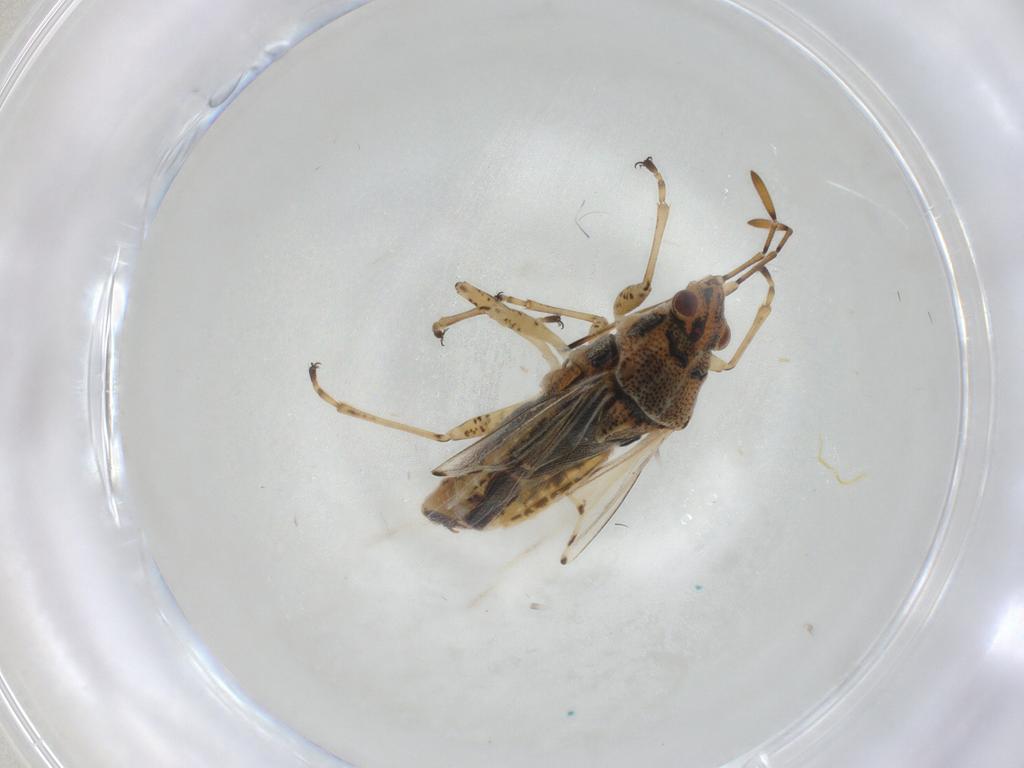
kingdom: Animalia
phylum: Arthropoda
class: Insecta
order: Hemiptera
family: Lygaeidae
